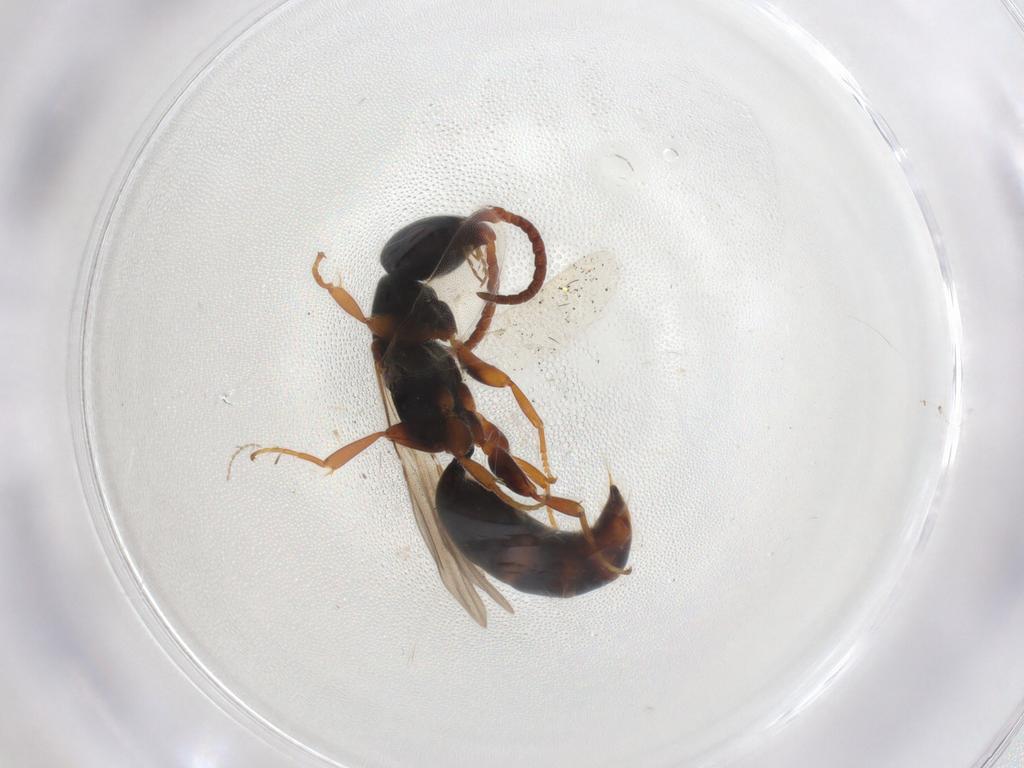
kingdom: Animalia
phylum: Arthropoda
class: Insecta
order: Hymenoptera
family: Bethylidae
